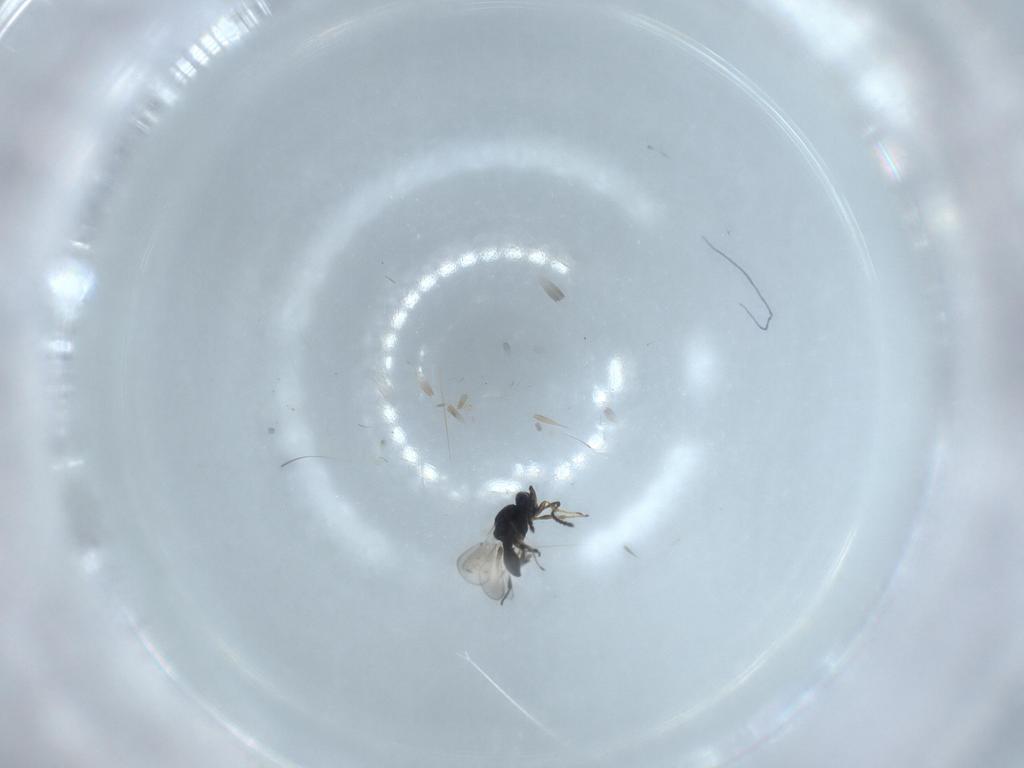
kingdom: Animalia
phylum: Arthropoda
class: Insecta
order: Hymenoptera
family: Platygastridae
